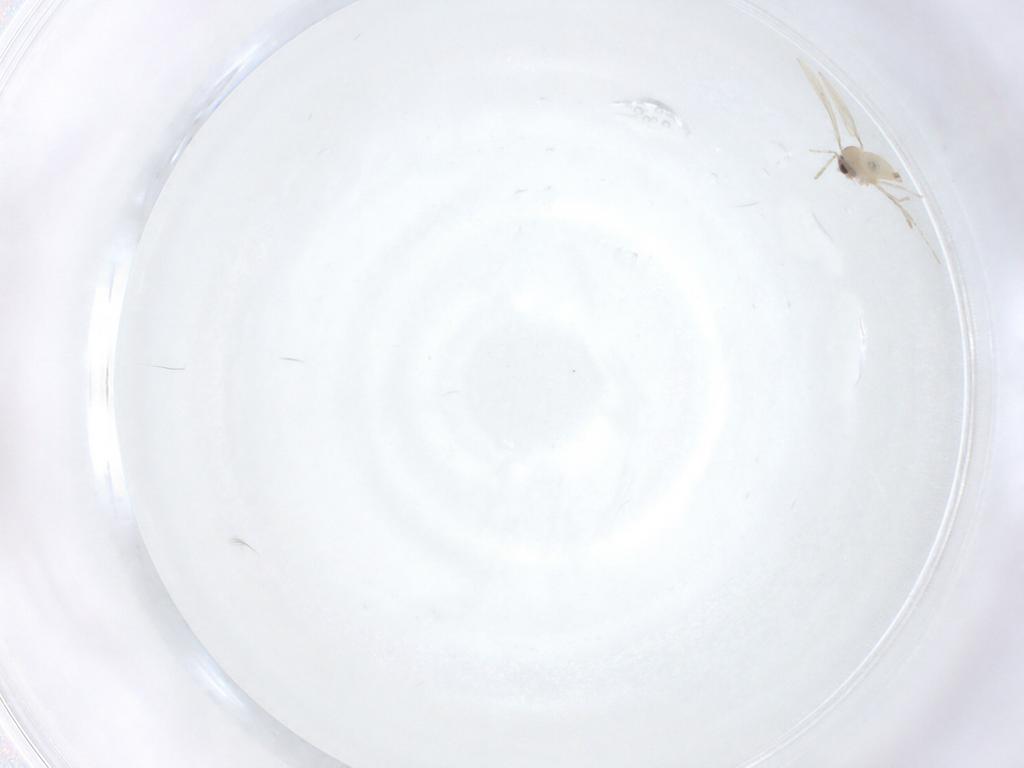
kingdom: Animalia
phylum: Arthropoda
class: Insecta
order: Diptera
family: Cecidomyiidae
